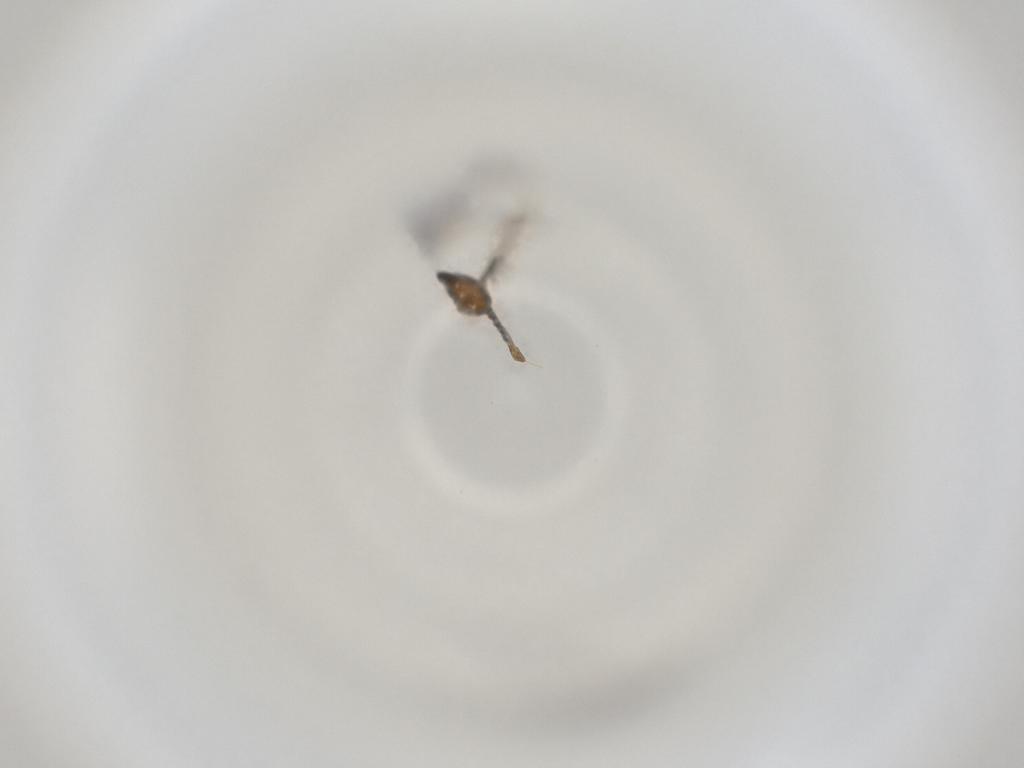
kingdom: Animalia
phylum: Arthropoda
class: Insecta
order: Diptera
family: Cecidomyiidae
